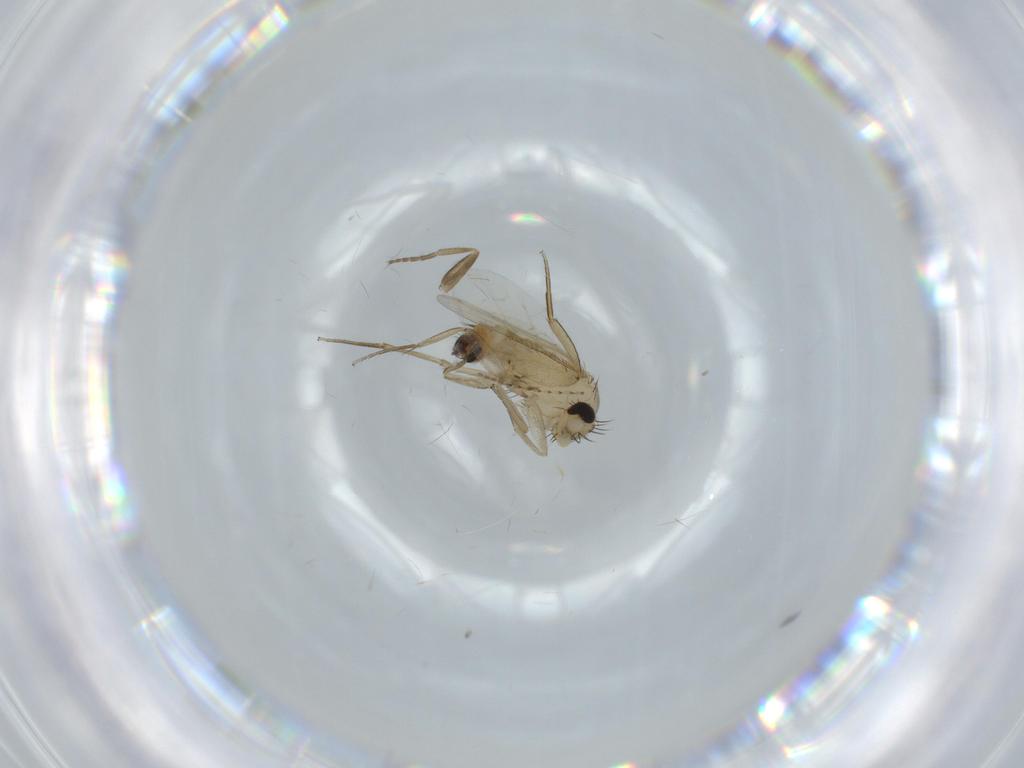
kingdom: Animalia
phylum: Arthropoda
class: Insecta
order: Diptera
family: Phoridae
